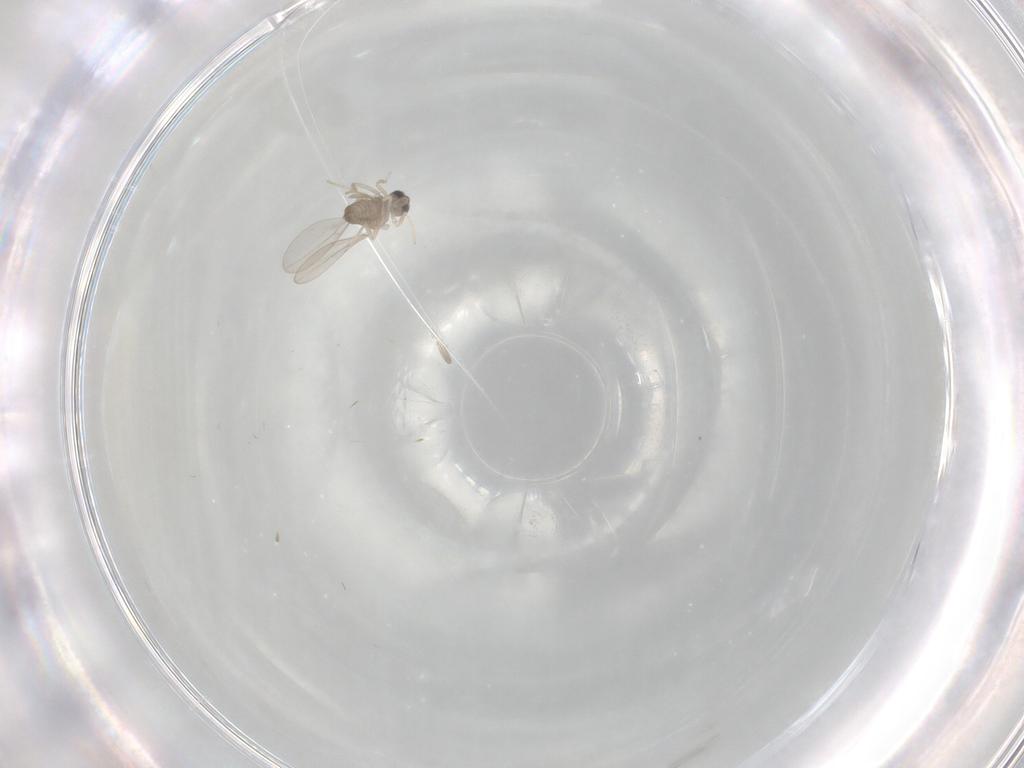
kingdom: Animalia
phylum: Arthropoda
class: Insecta
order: Diptera
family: Cecidomyiidae
